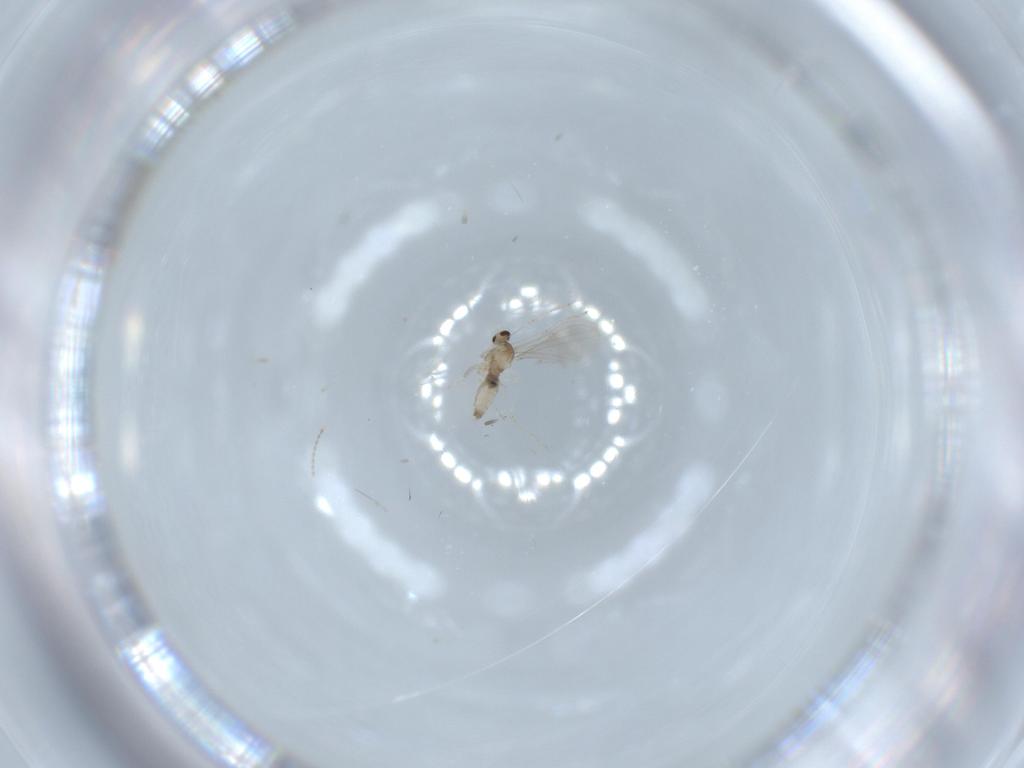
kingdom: Animalia
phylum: Arthropoda
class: Insecta
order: Diptera
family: Cecidomyiidae
